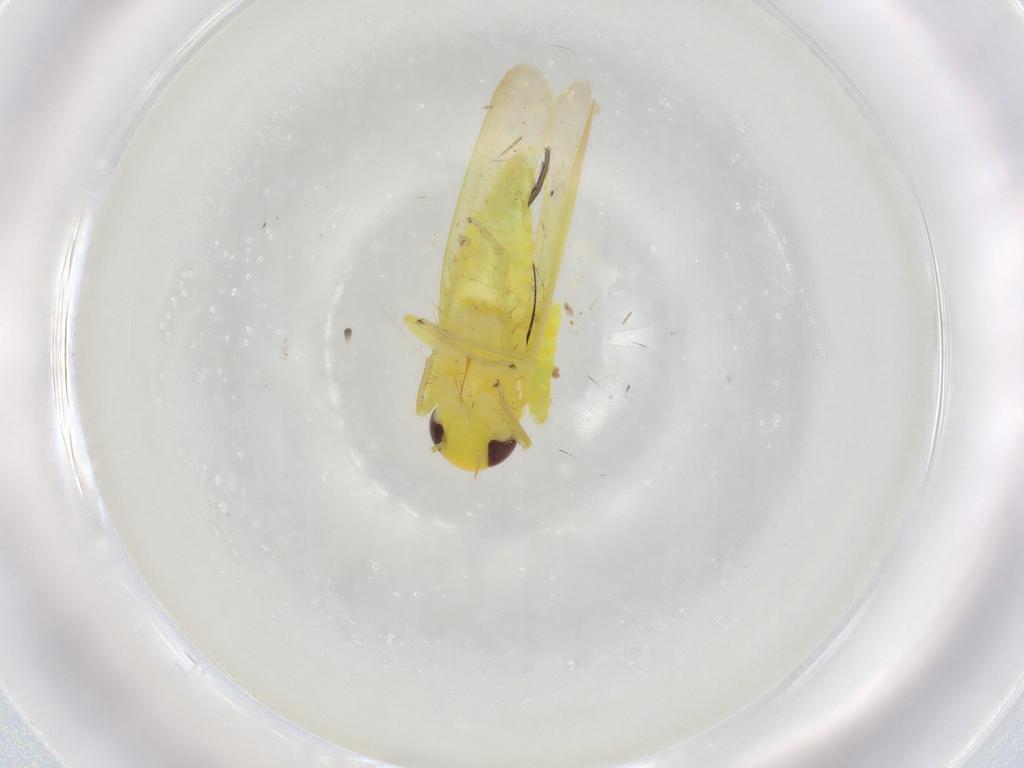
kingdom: Animalia
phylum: Arthropoda
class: Insecta
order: Hemiptera
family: Cicadellidae
